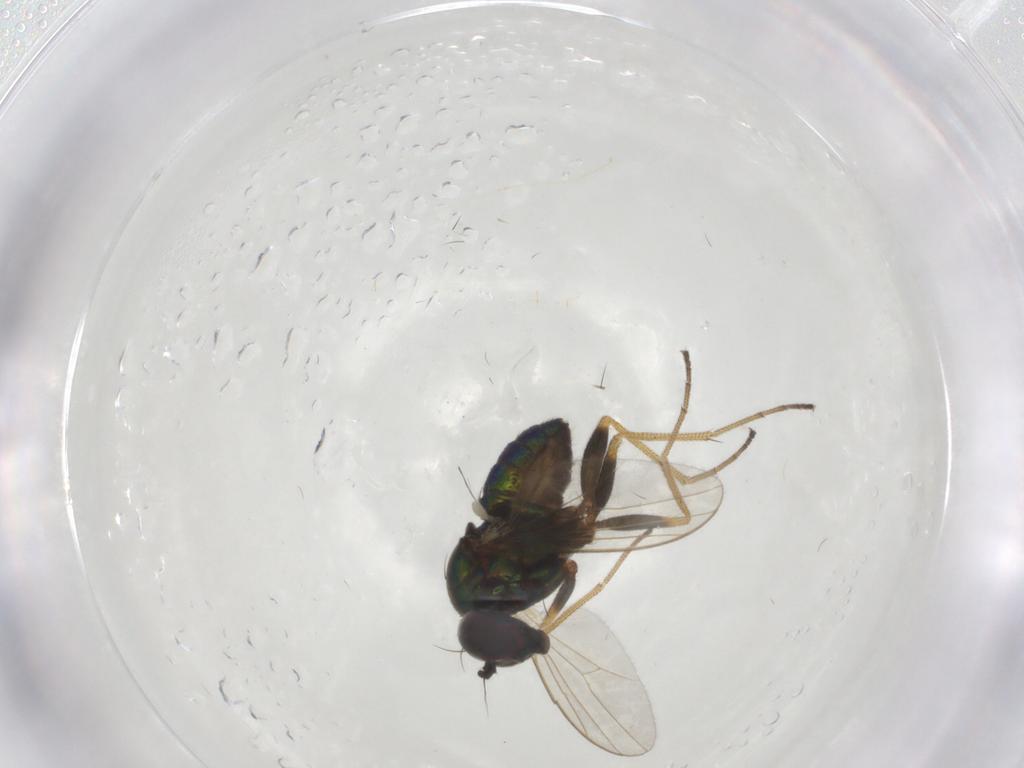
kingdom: Animalia
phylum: Arthropoda
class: Insecta
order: Diptera
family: Dolichopodidae
